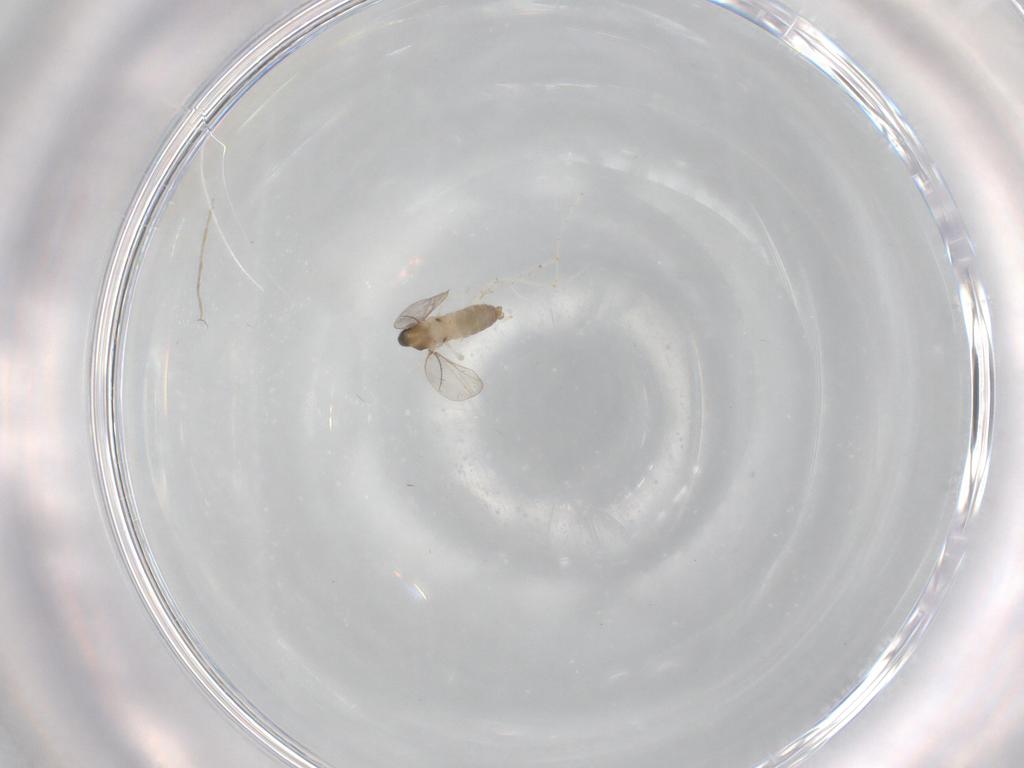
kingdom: Animalia
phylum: Arthropoda
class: Insecta
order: Diptera
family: Cecidomyiidae
